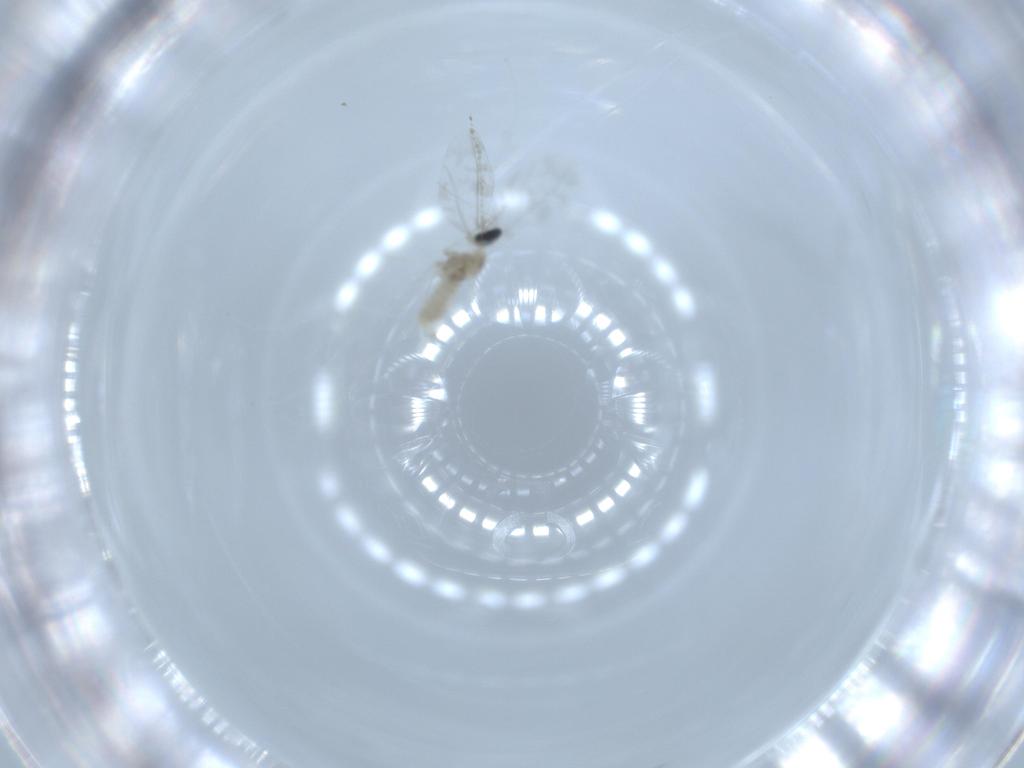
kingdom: Animalia
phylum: Arthropoda
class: Insecta
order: Diptera
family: Cecidomyiidae
